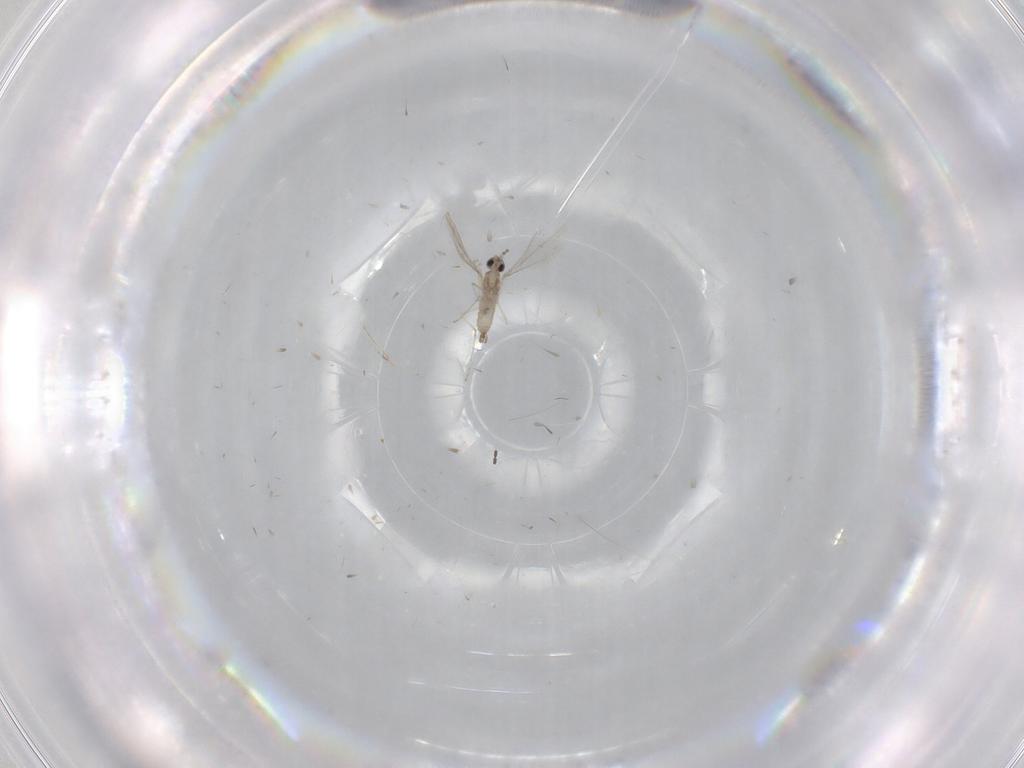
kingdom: Animalia
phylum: Arthropoda
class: Insecta
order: Diptera
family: Cecidomyiidae
